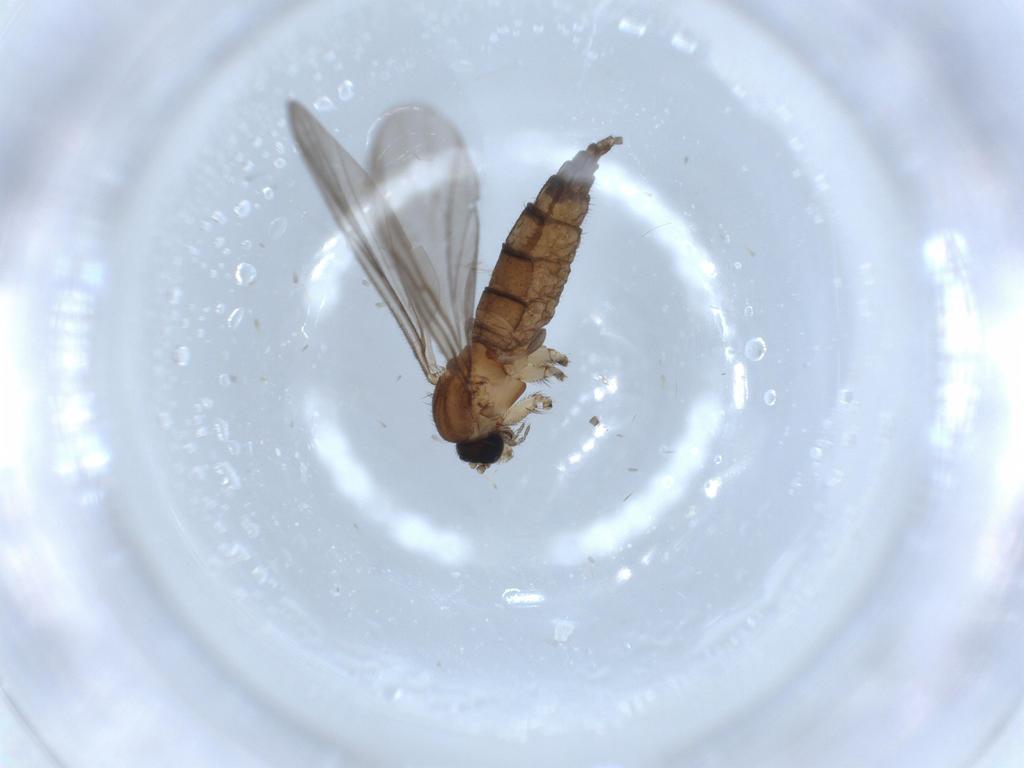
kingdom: Animalia
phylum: Arthropoda
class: Insecta
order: Diptera
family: Sciaridae
